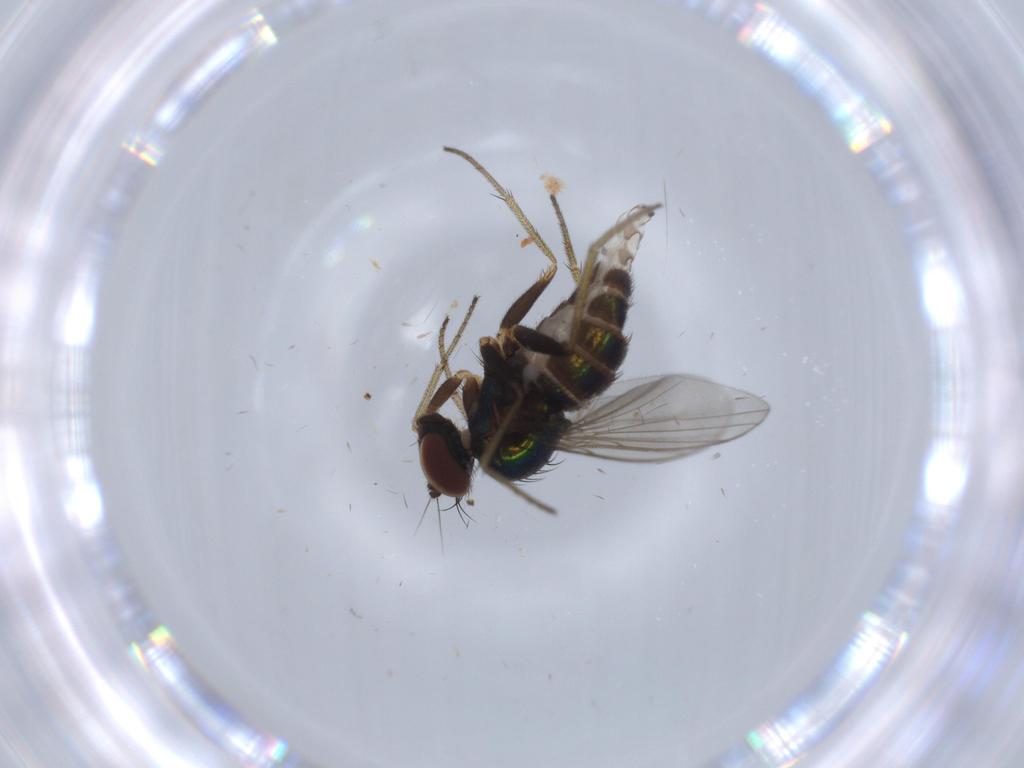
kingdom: Animalia
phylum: Arthropoda
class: Insecta
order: Diptera
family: Chironomidae
